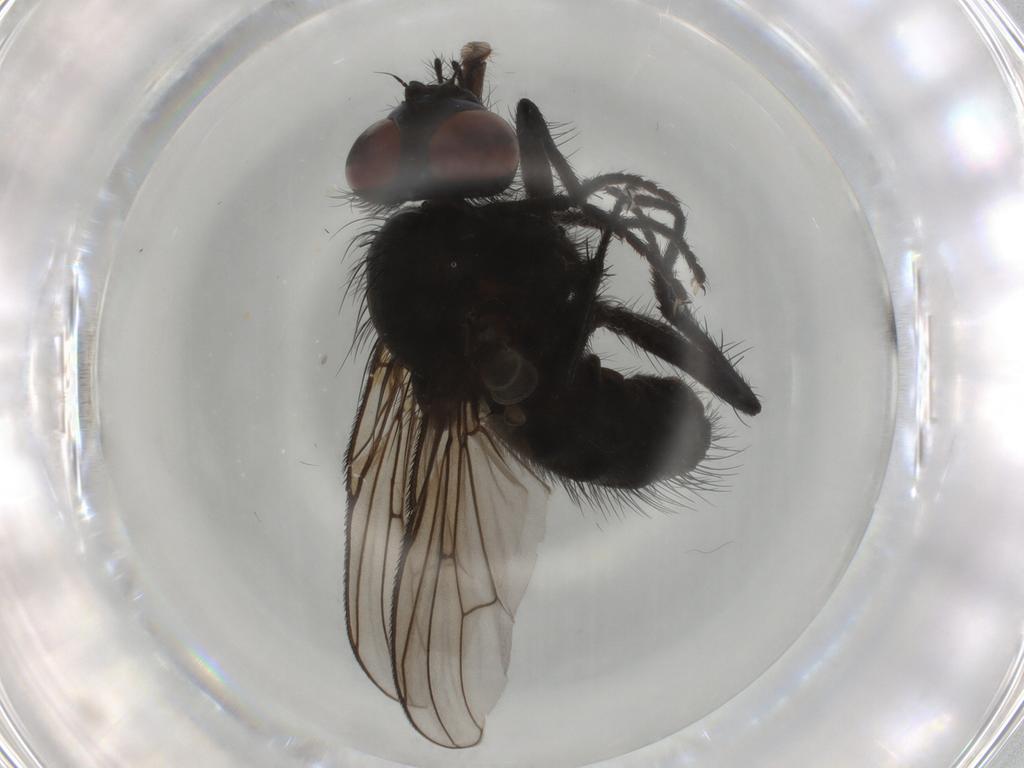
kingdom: Animalia
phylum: Arthropoda
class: Insecta
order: Diptera
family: Muscidae
